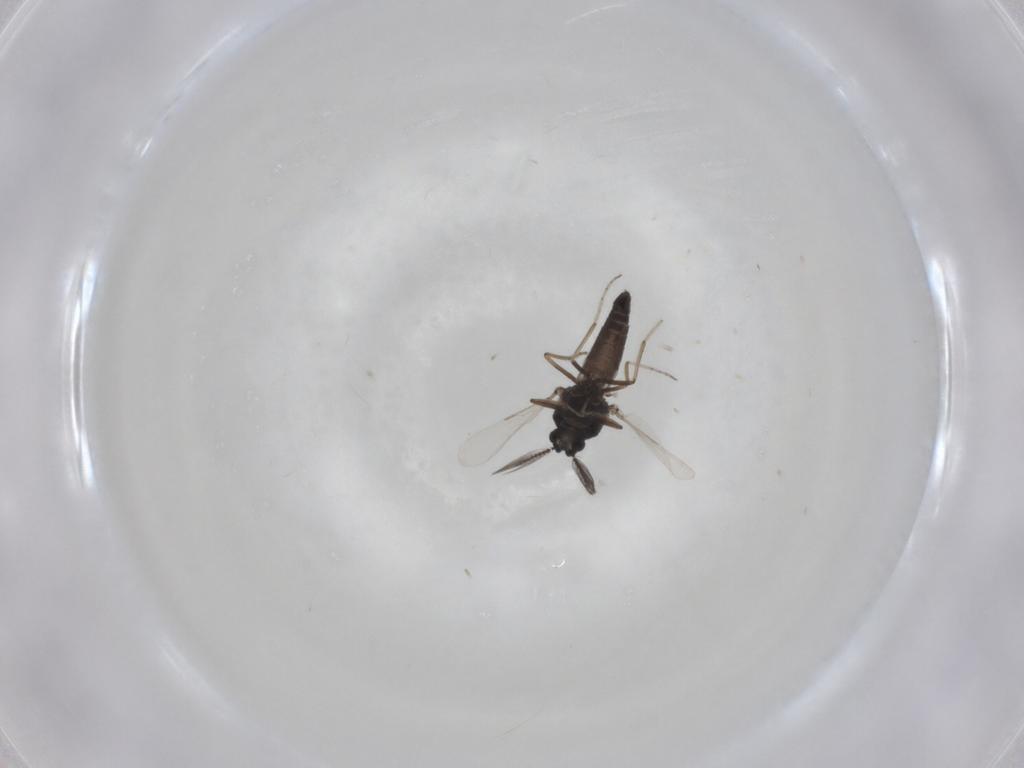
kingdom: Animalia
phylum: Arthropoda
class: Insecta
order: Diptera
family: Ceratopogonidae
